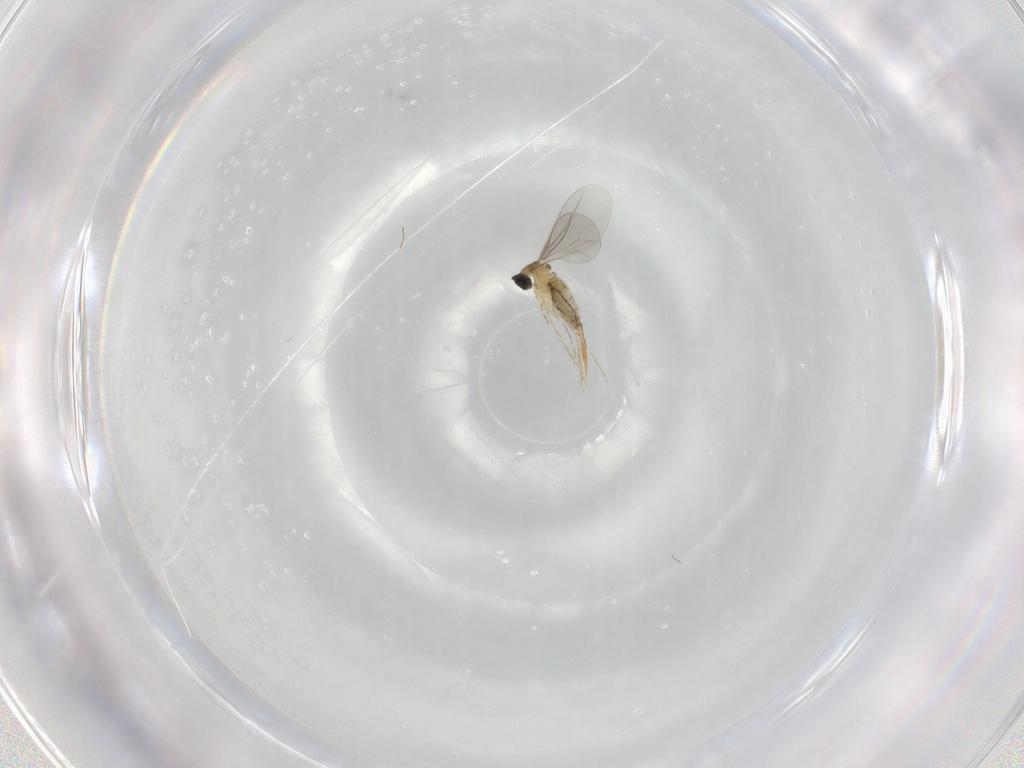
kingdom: Animalia
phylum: Arthropoda
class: Insecta
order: Diptera
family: Cecidomyiidae
